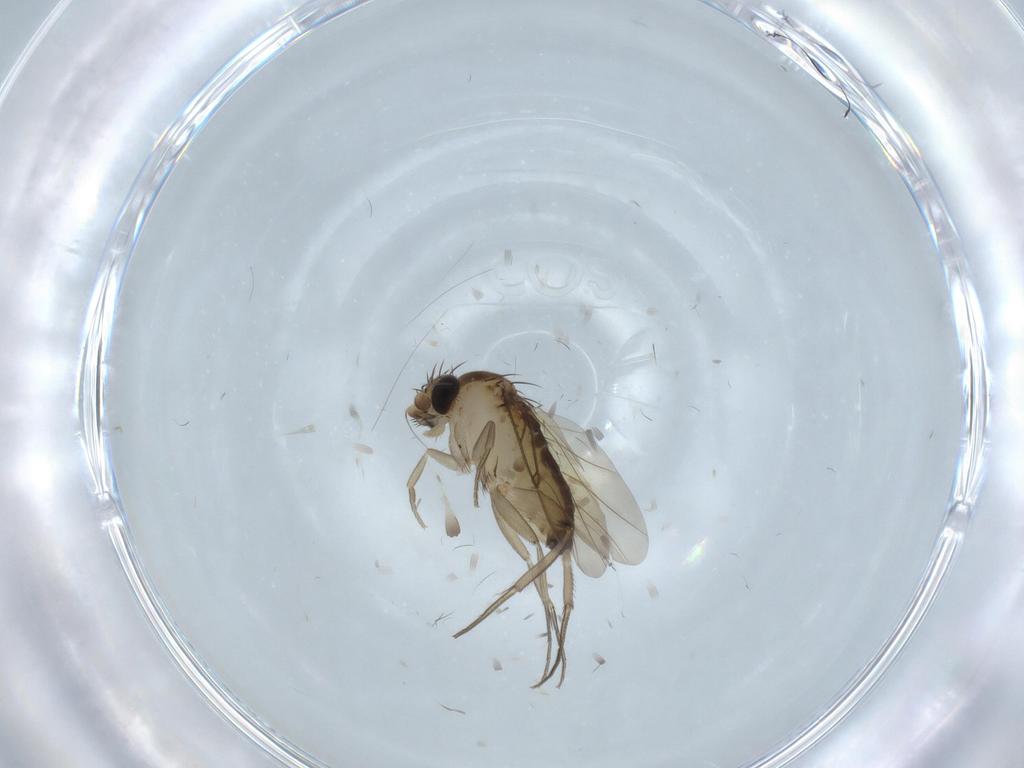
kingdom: Animalia
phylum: Arthropoda
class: Insecta
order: Diptera
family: Phoridae
